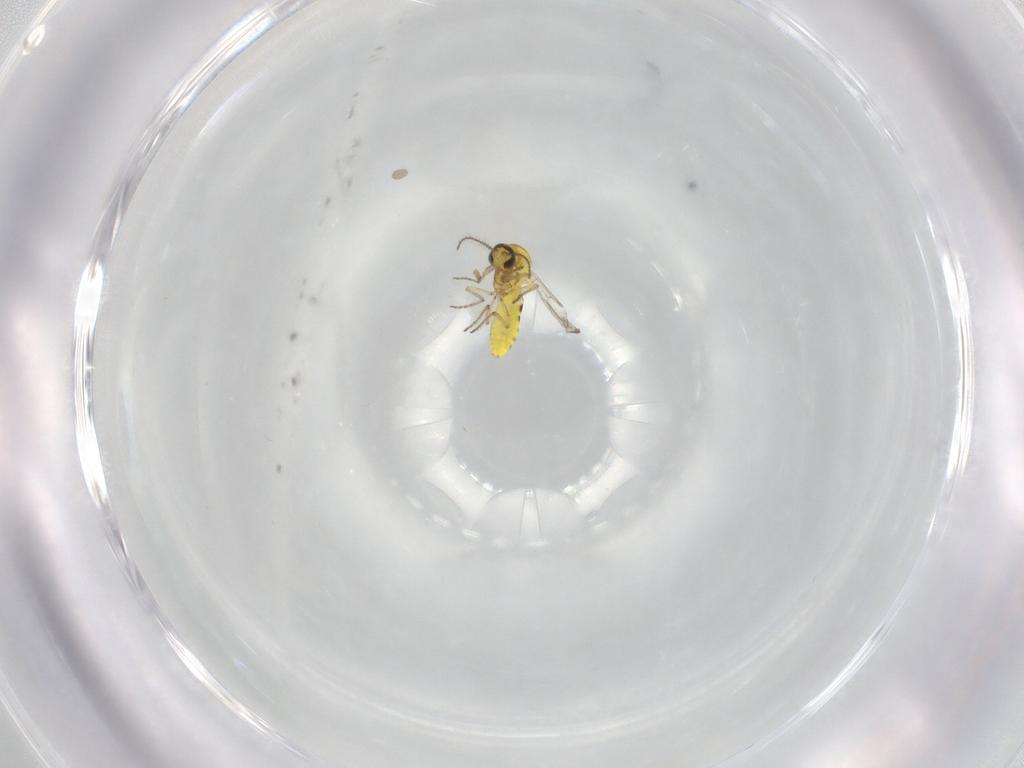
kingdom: Animalia
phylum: Arthropoda
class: Insecta
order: Diptera
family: Ceratopogonidae
